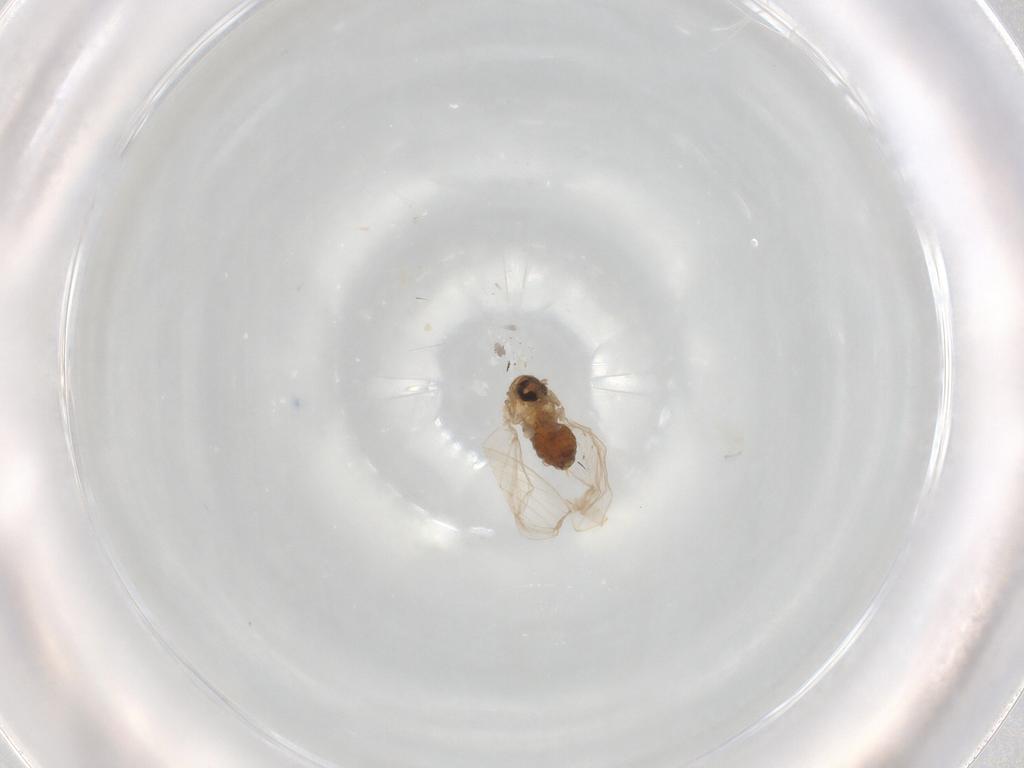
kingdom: Animalia
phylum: Arthropoda
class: Insecta
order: Diptera
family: Psychodidae
